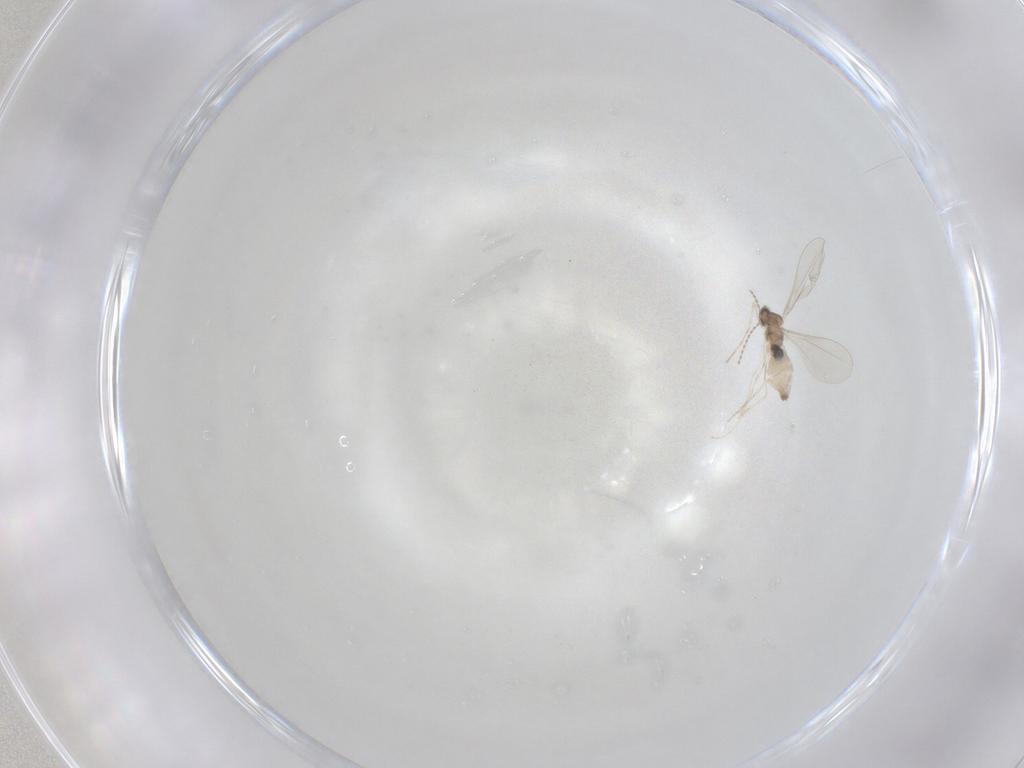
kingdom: Animalia
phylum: Arthropoda
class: Insecta
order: Diptera
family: Cecidomyiidae
